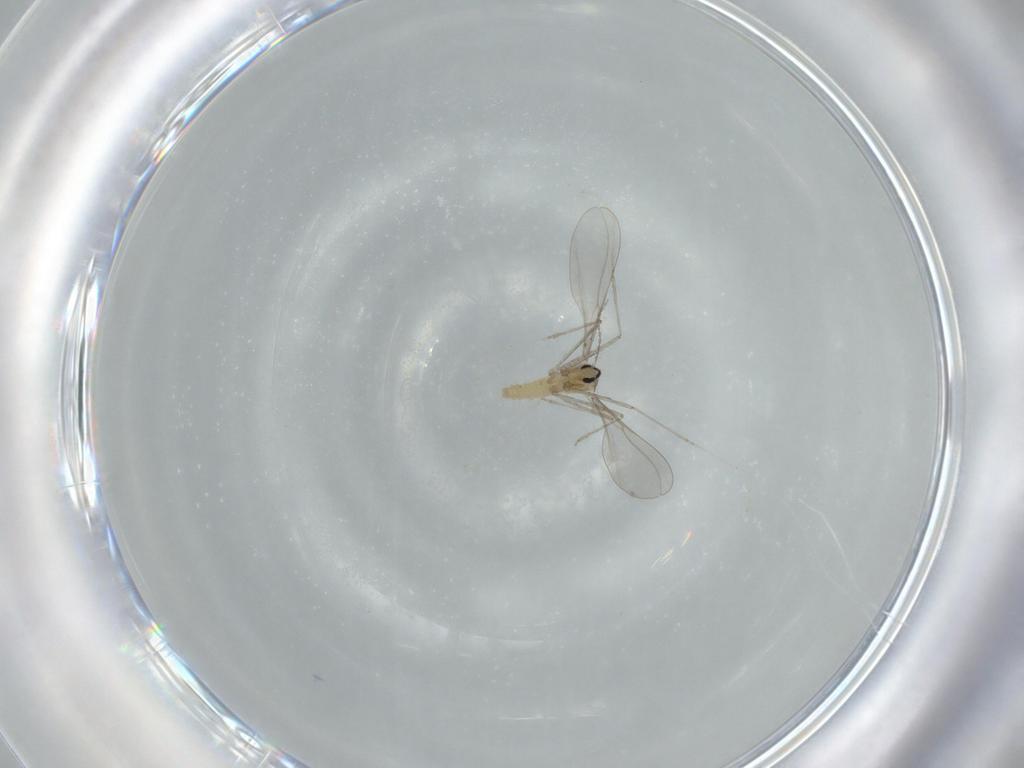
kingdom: Animalia
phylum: Arthropoda
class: Insecta
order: Diptera
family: Cecidomyiidae
